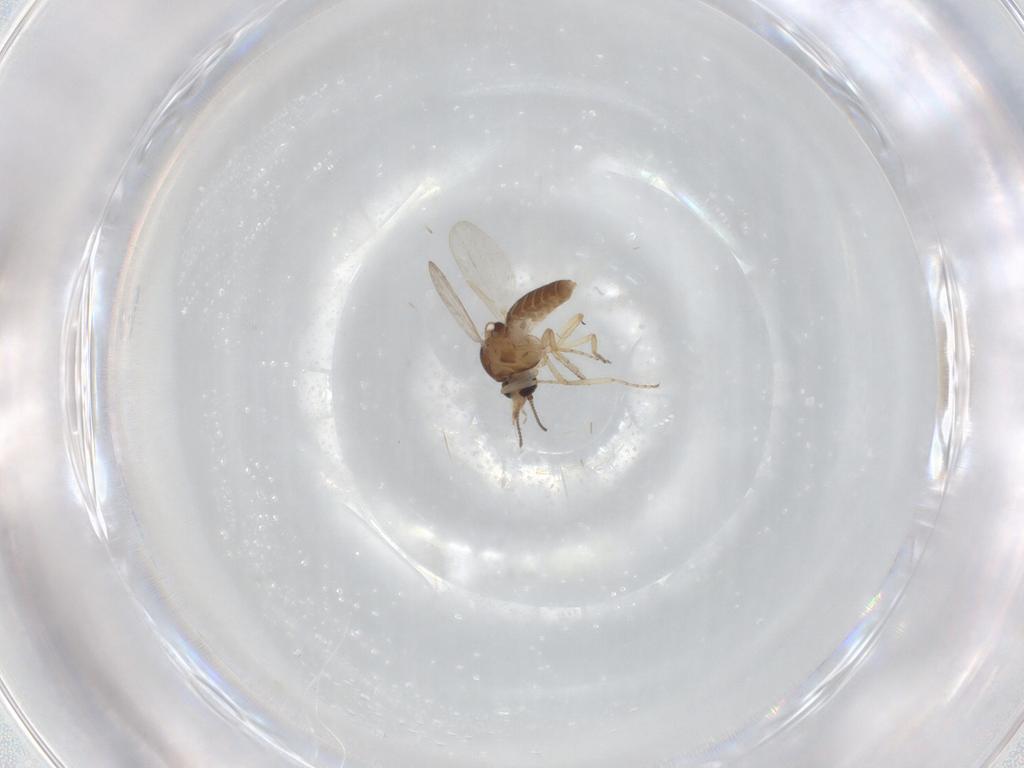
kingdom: Animalia
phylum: Arthropoda
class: Insecta
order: Diptera
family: Ceratopogonidae
